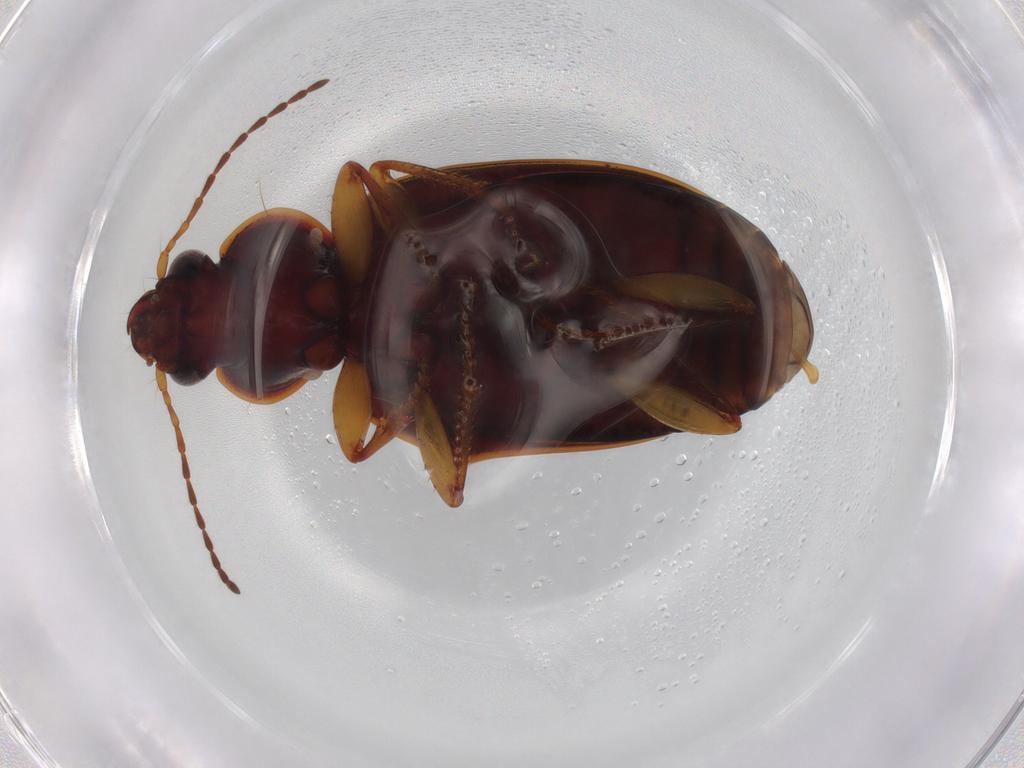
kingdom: Animalia
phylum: Arthropoda
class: Insecta
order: Coleoptera
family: Carabidae
